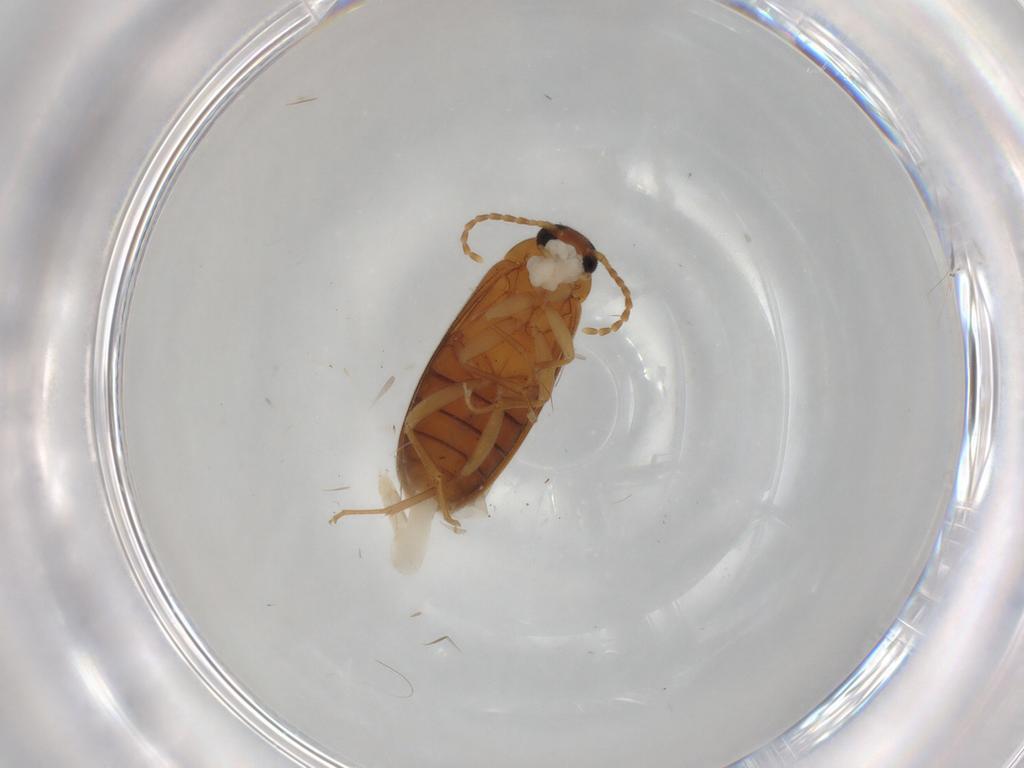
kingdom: Animalia
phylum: Arthropoda
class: Insecta
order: Coleoptera
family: Scraptiidae
